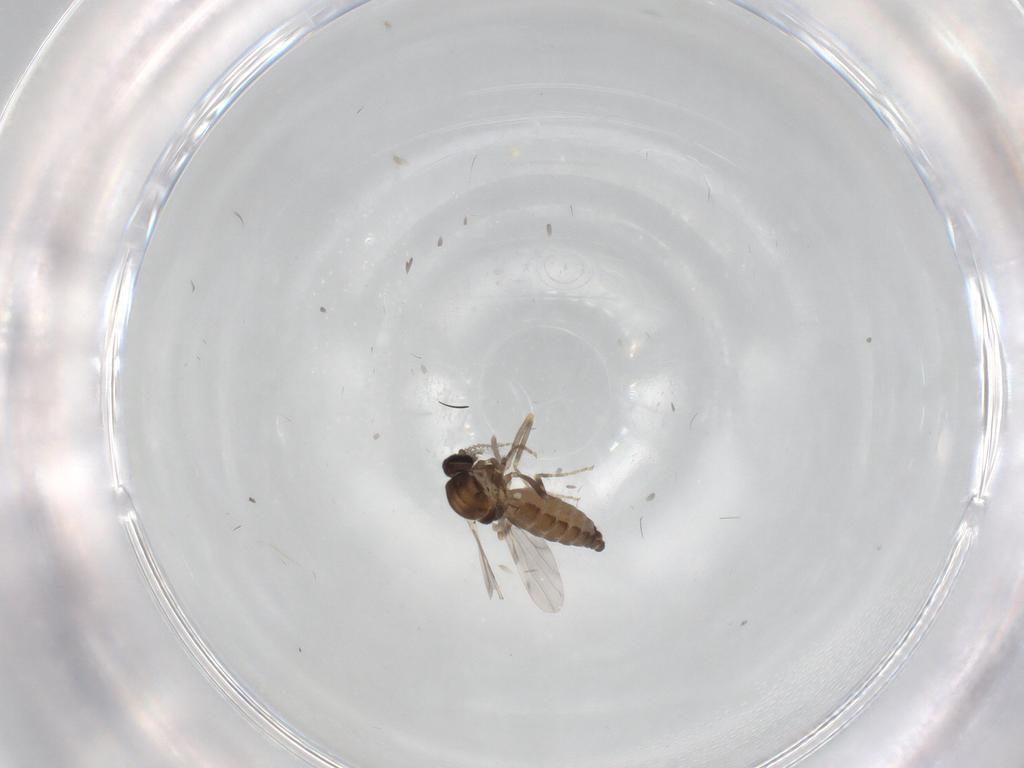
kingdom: Animalia
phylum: Arthropoda
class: Insecta
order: Diptera
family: Ceratopogonidae
